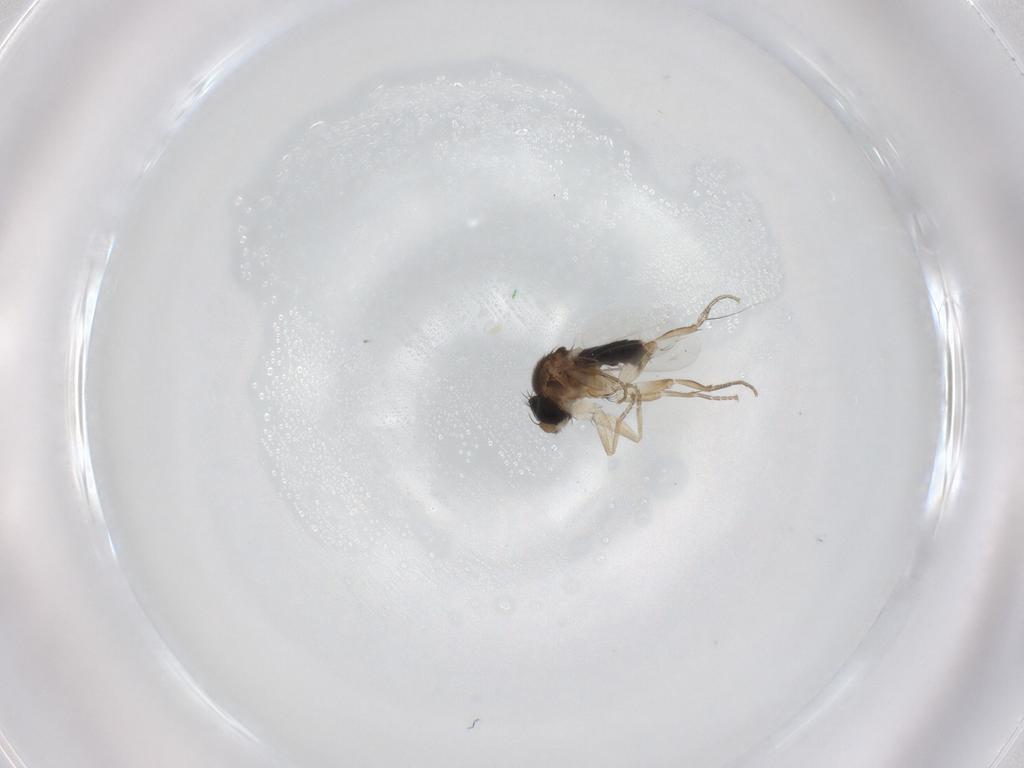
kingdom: Animalia
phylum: Arthropoda
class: Insecta
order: Diptera
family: Phoridae
